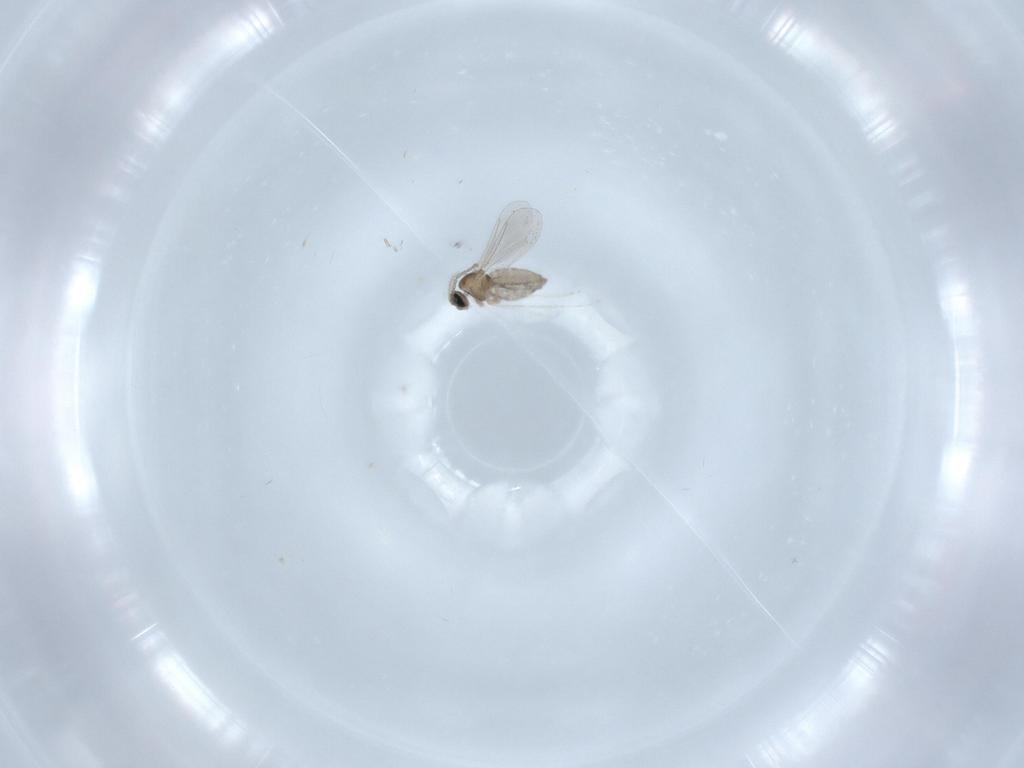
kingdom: Animalia
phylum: Arthropoda
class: Insecta
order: Diptera
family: Cecidomyiidae
